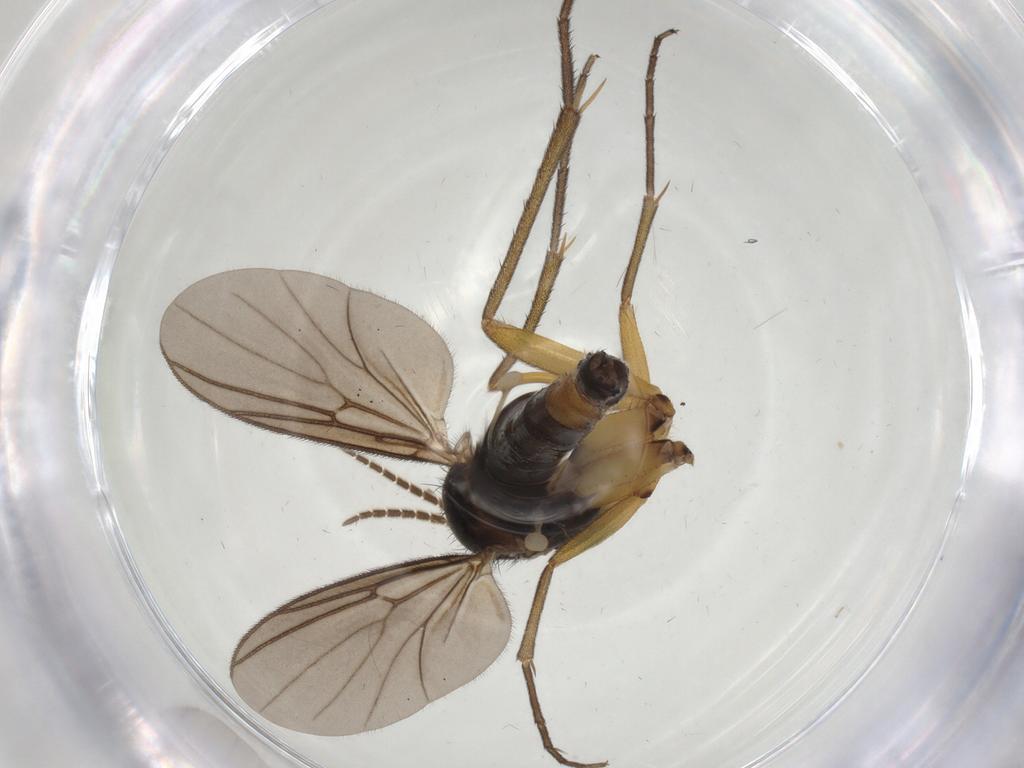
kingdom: Animalia
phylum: Arthropoda
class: Insecta
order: Diptera
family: Mycetophilidae
